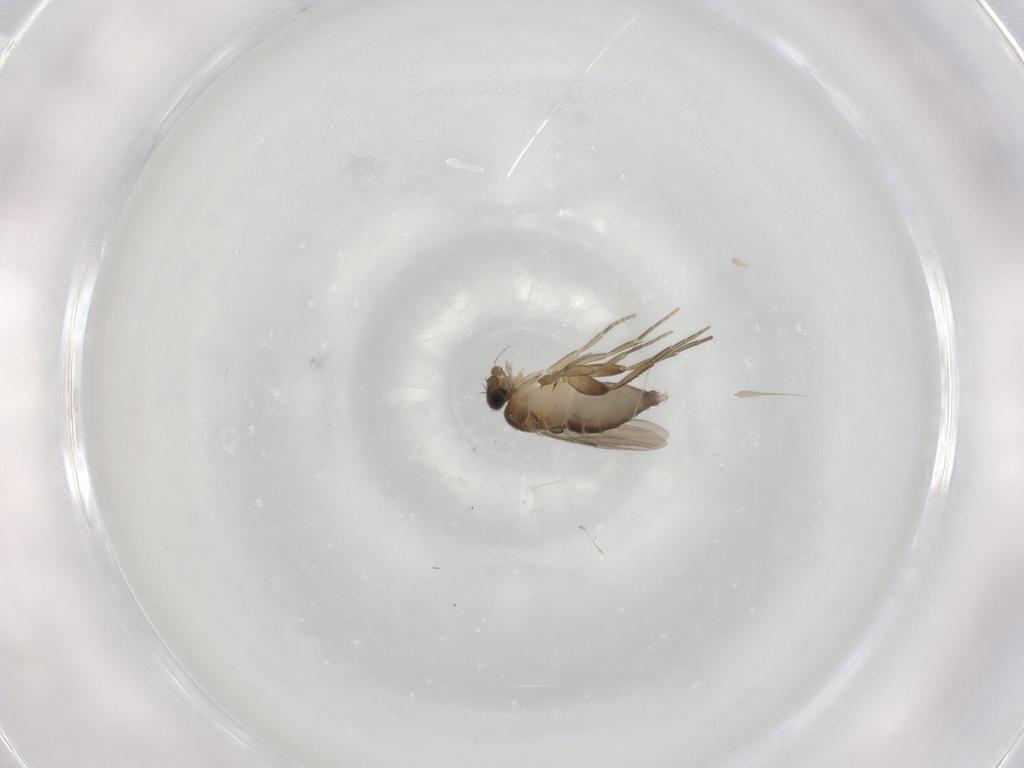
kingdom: Animalia
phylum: Arthropoda
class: Insecta
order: Diptera
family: Phoridae
